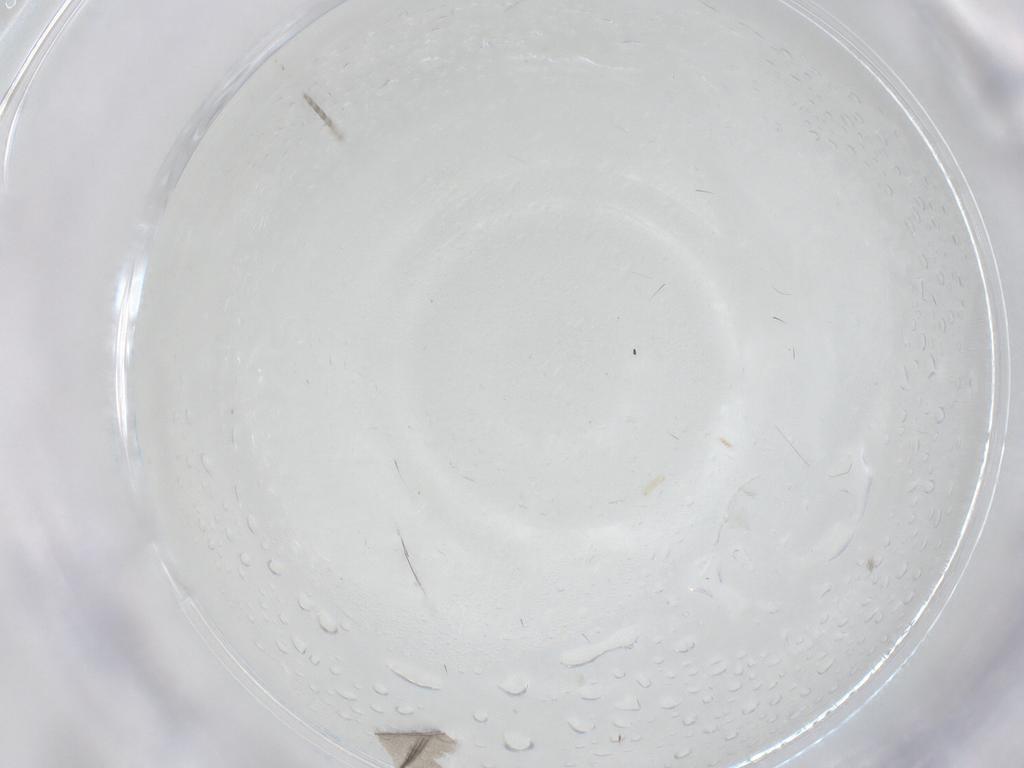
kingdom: Animalia
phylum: Arthropoda
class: Insecta
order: Hymenoptera
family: Platygastridae
